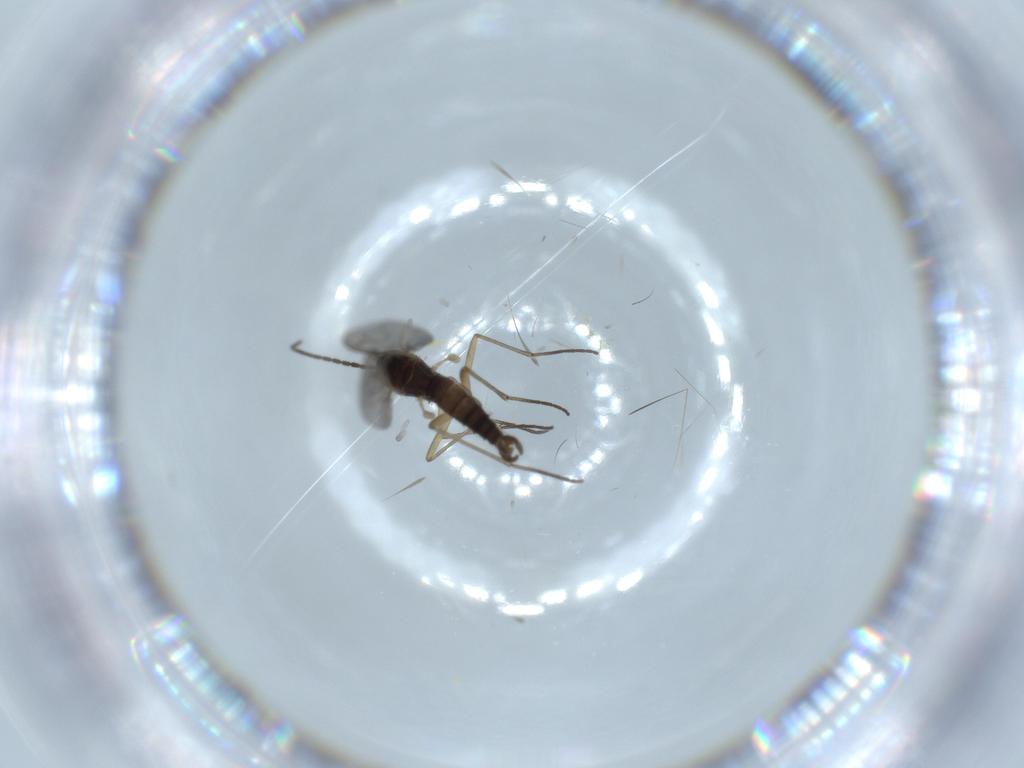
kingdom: Animalia
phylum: Arthropoda
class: Insecta
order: Diptera
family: Sciaridae
